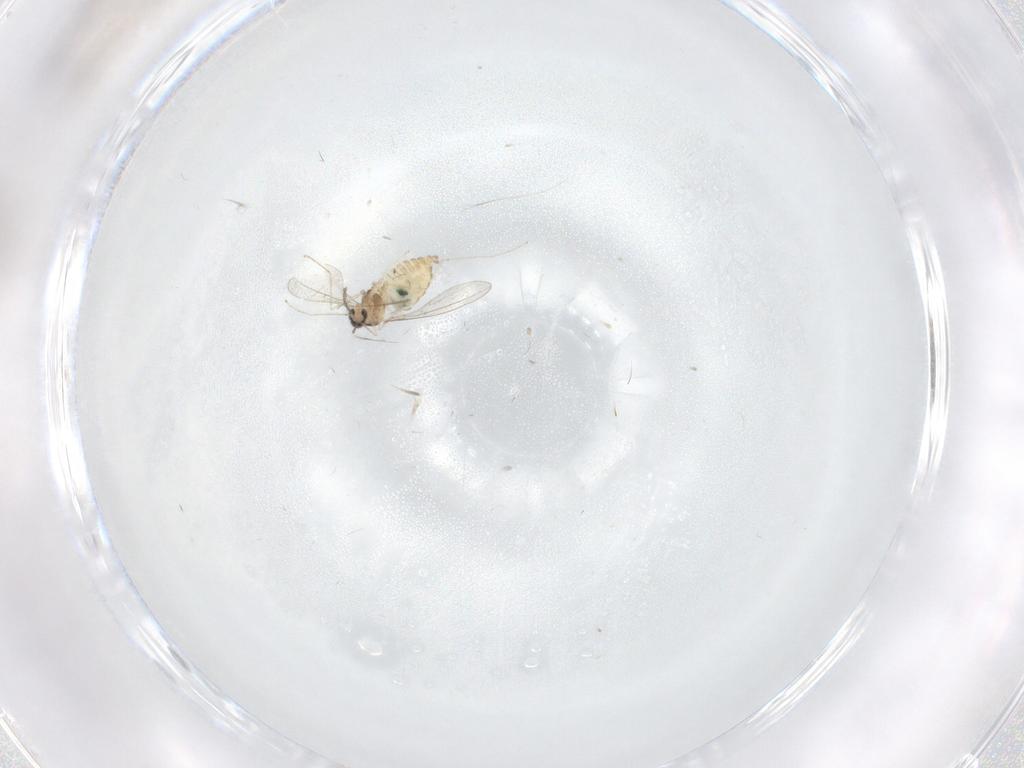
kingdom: Animalia
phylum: Arthropoda
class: Insecta
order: Diptera
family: Cecidomyiidae
